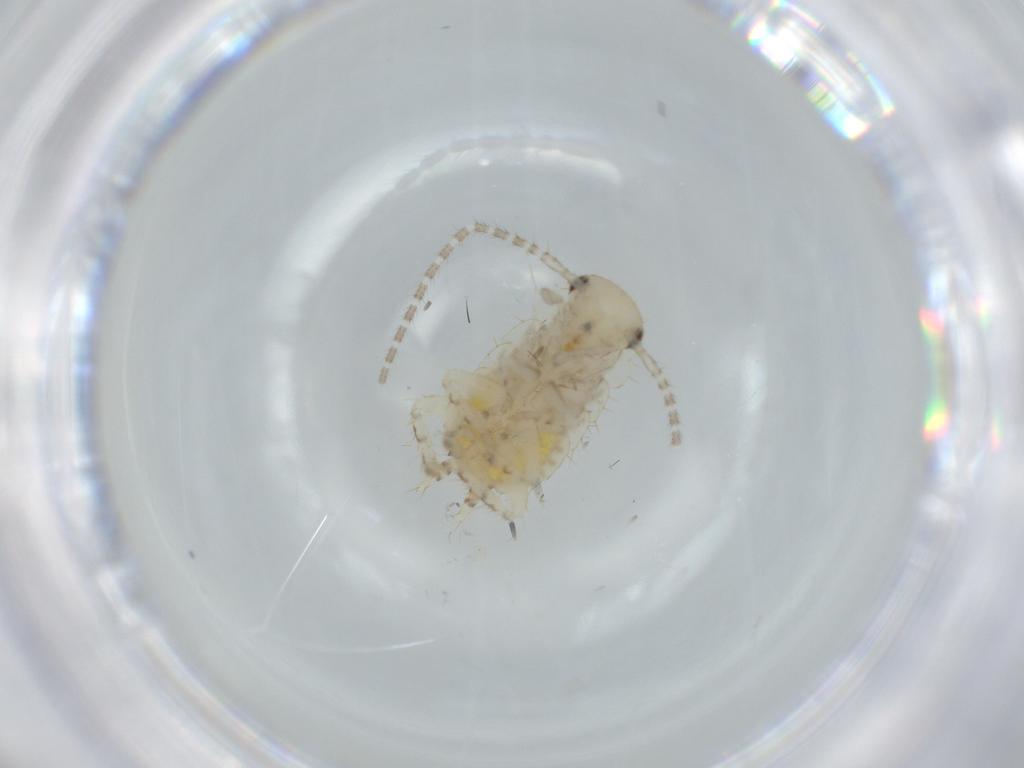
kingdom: Animalia
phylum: Arthropoda
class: Insecta
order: Blattodea
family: Ectobiidae
